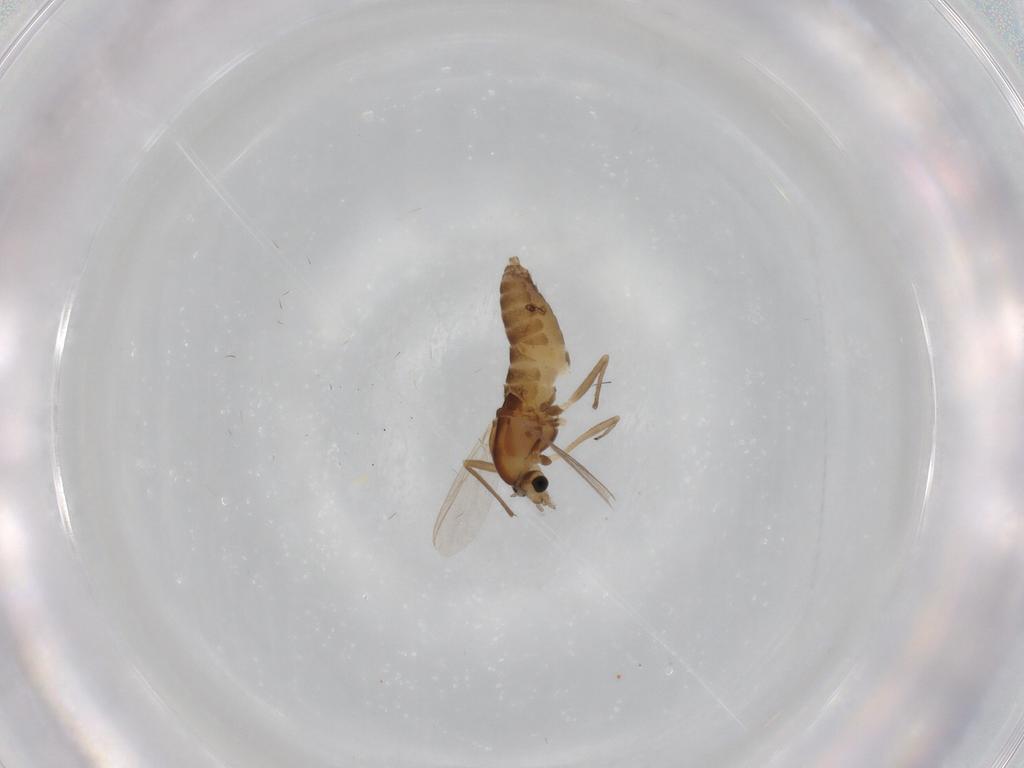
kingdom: Animalia
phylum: Arthropoda
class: Insecta
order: Diptera
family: Chironomidae
